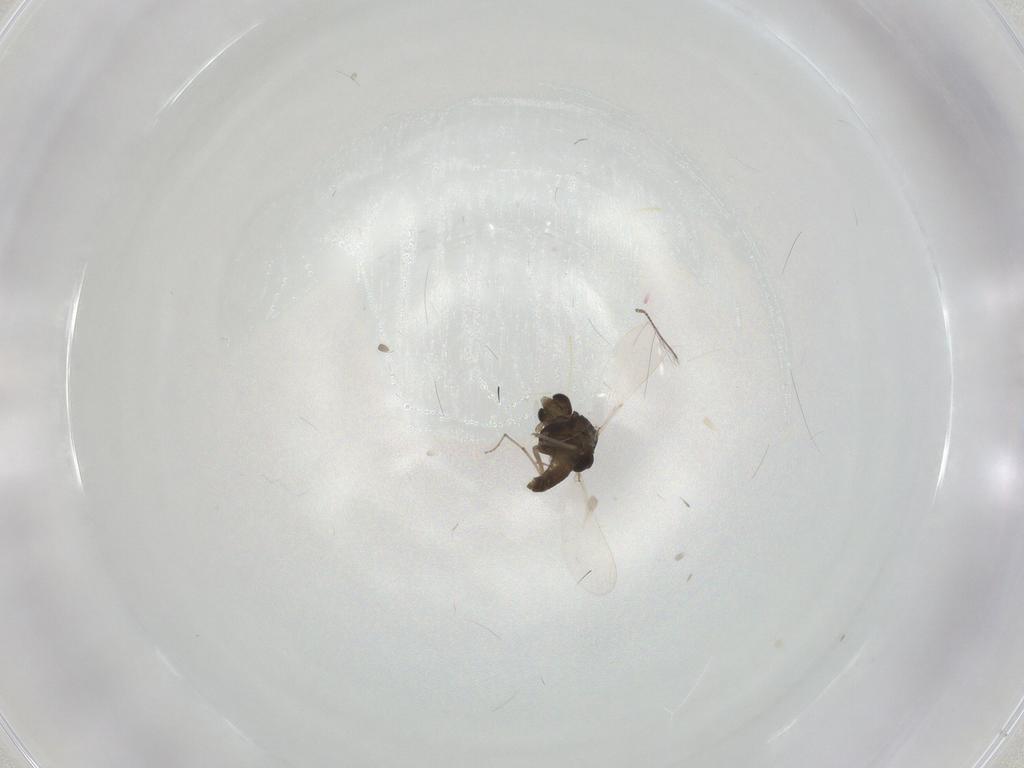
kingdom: Animalia
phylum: Arthropoda
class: Insecta
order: Diptera
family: Chironomidae
